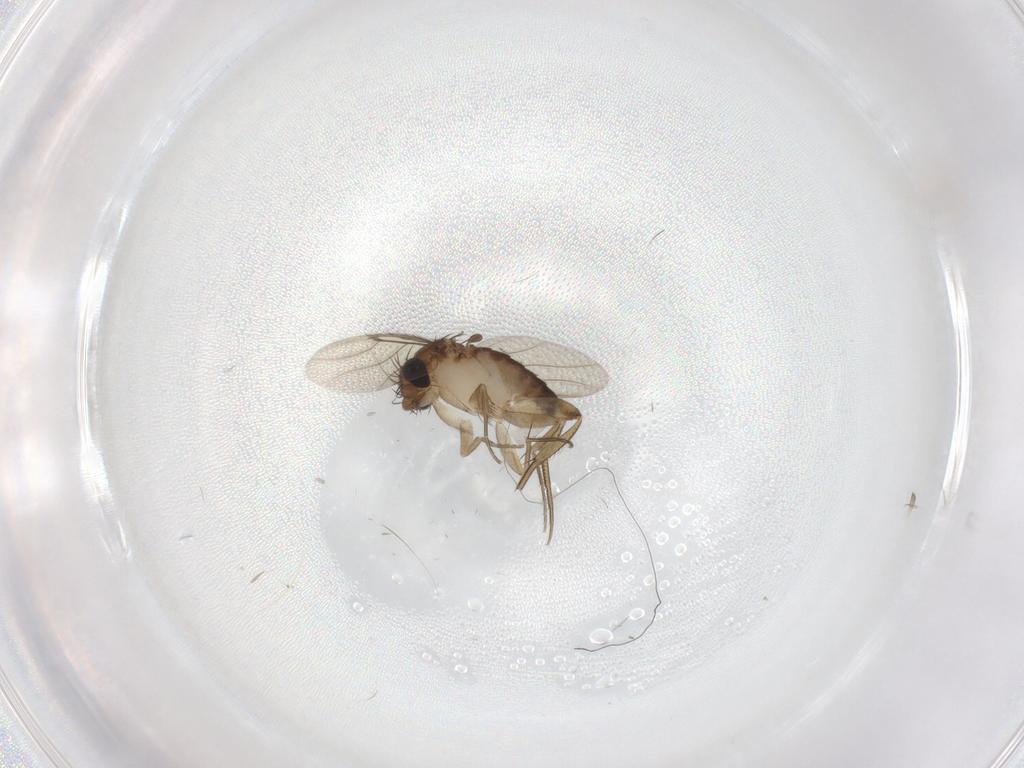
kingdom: Animalia
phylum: Arthropoda
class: Insecta
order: Diptera
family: Phoridae
